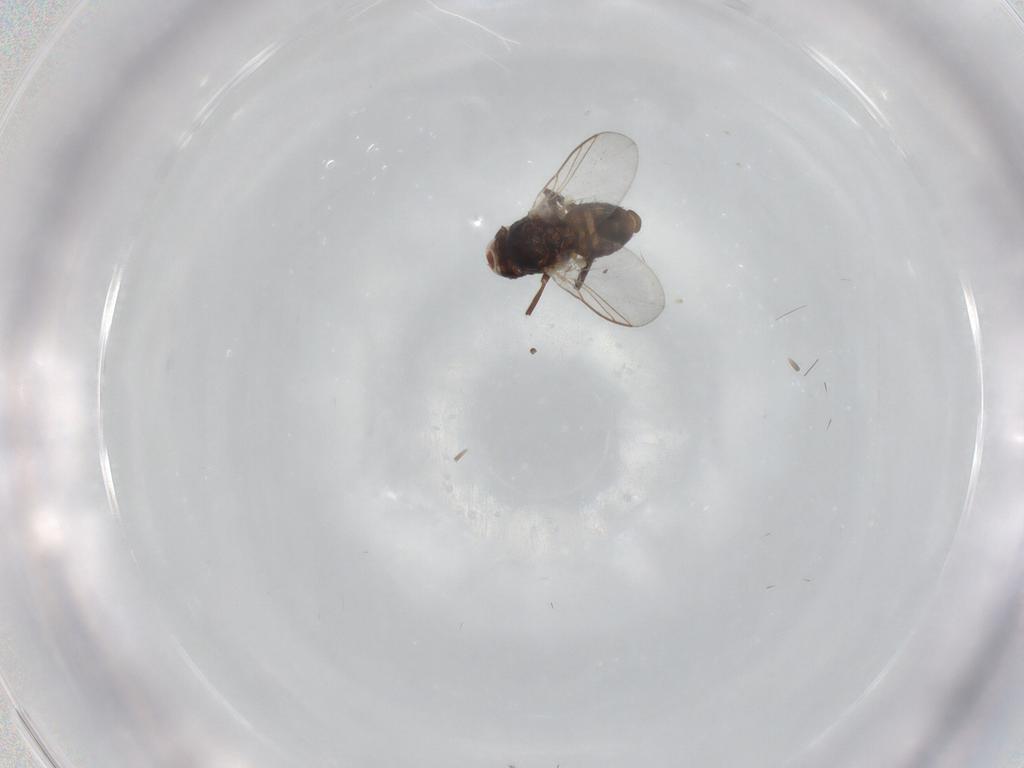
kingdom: Animalia
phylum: Arthropoda
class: Insecta
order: Diptera
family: Agromyzidae
